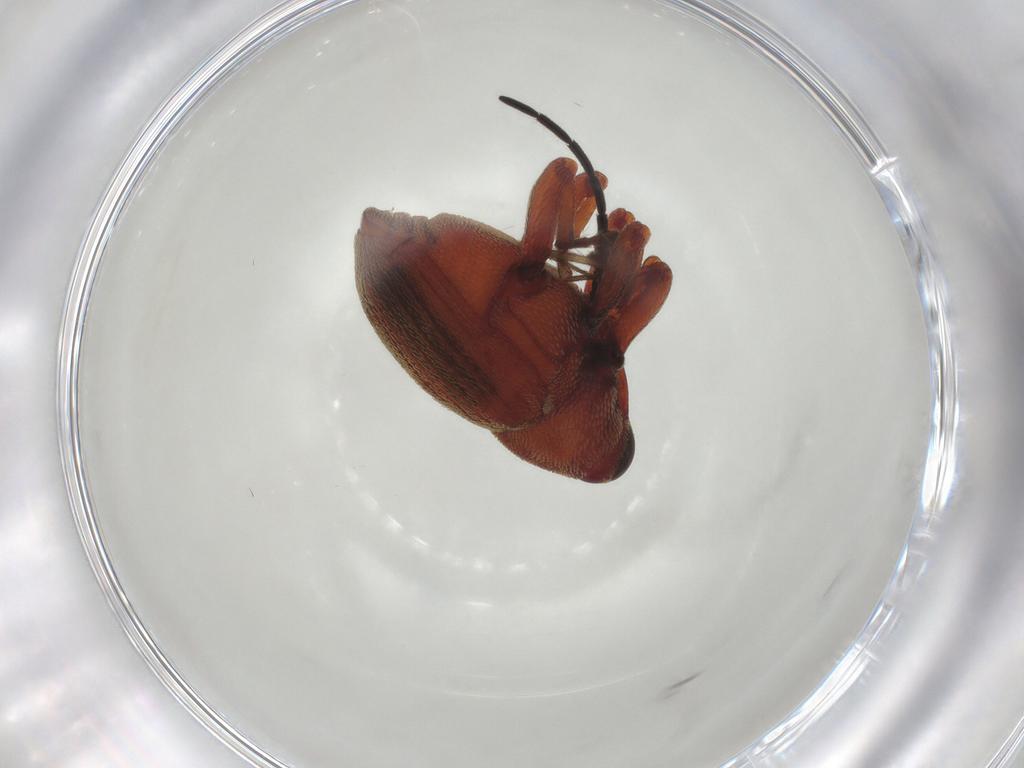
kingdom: Animalia
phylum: Arthropoda
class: Insecta
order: Coleoptera
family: Curculionidae
